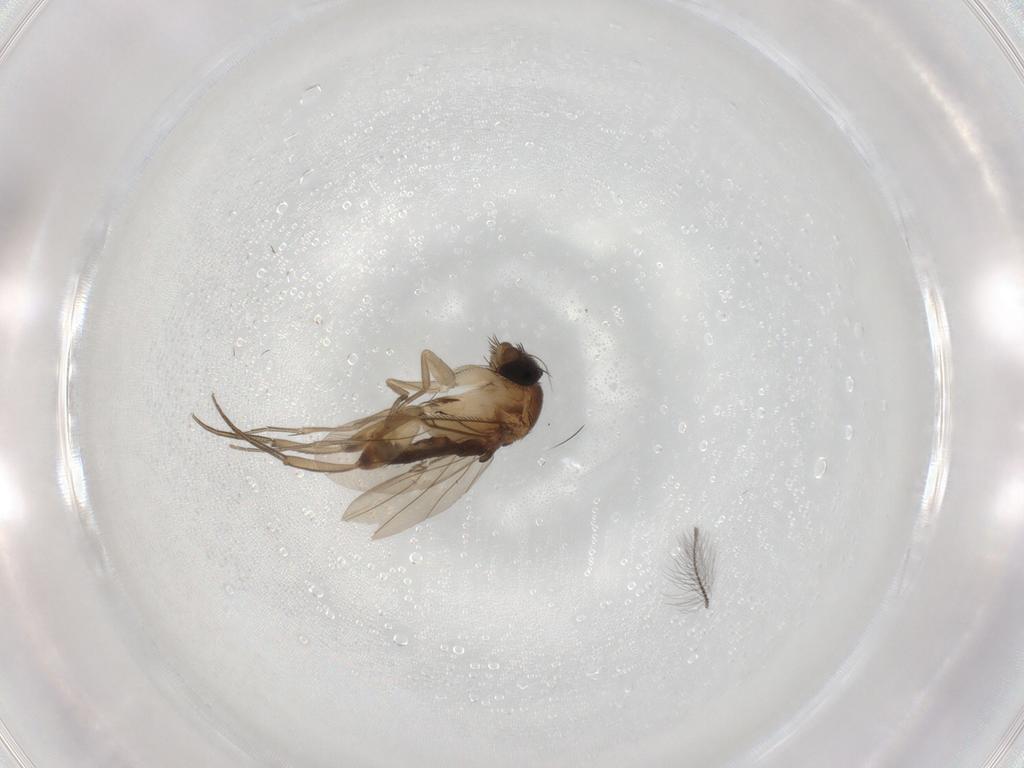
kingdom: Animalia
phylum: Arthropoda
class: Insecta
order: Diptera
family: Phoridae
